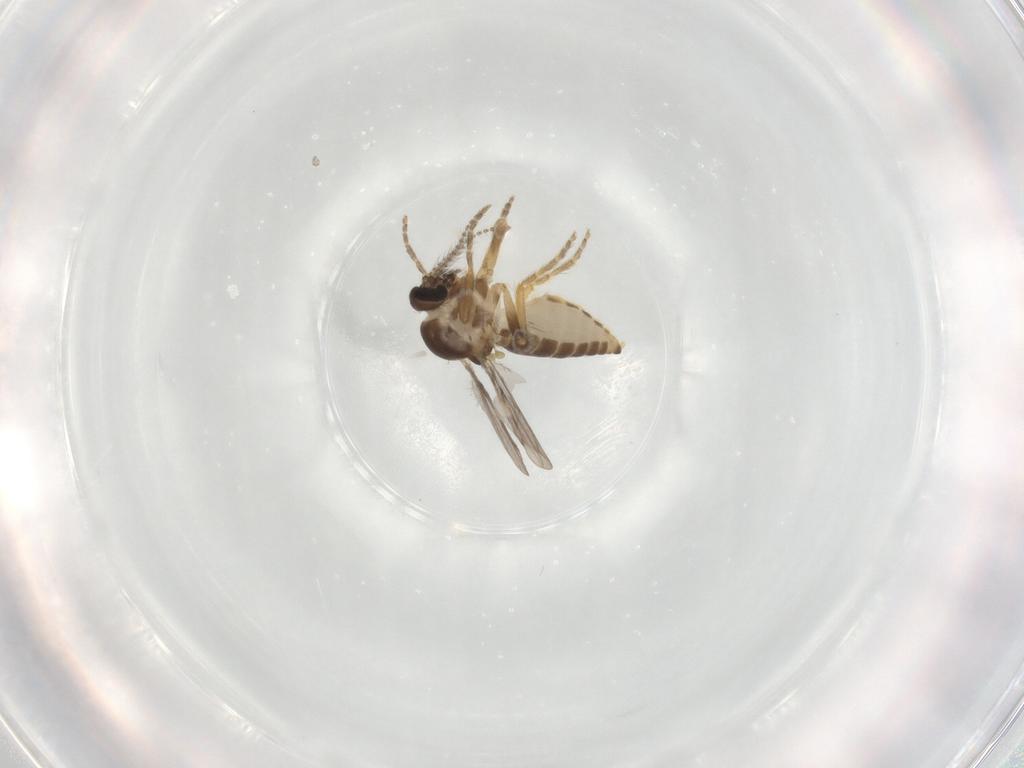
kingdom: Animalia
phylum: Arthropoda
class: Insecta
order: Diptera
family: Ceratopogonidae
